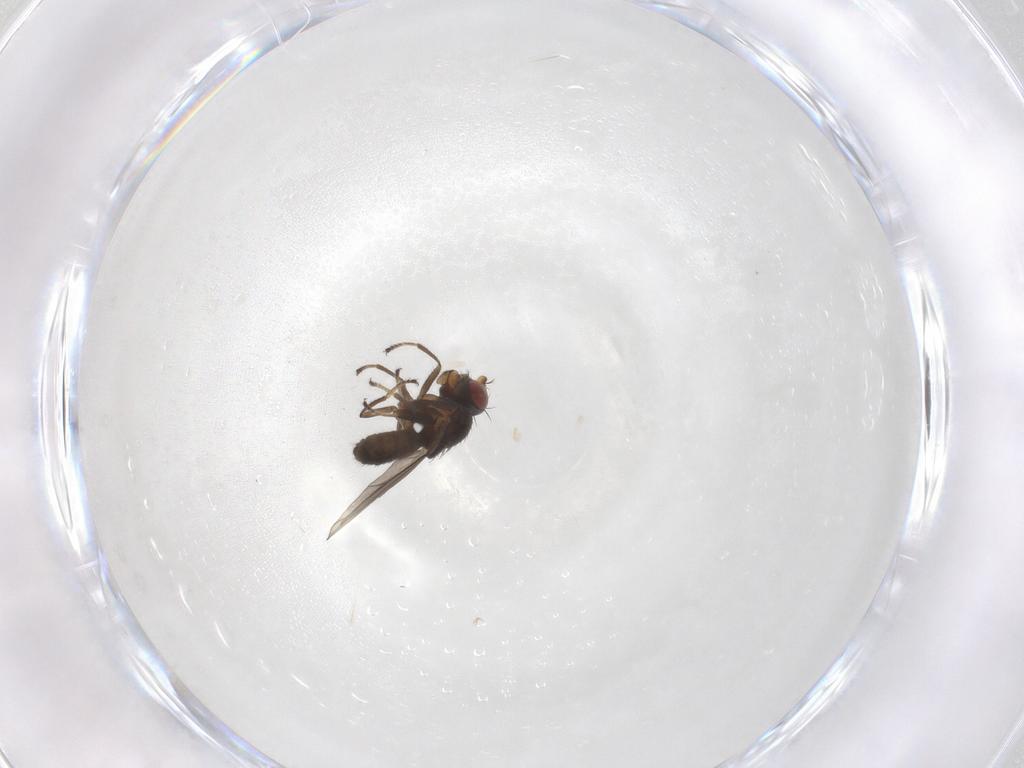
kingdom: Animalia
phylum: Arthropoda
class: Insecta
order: Diptera
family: Ephydridae
